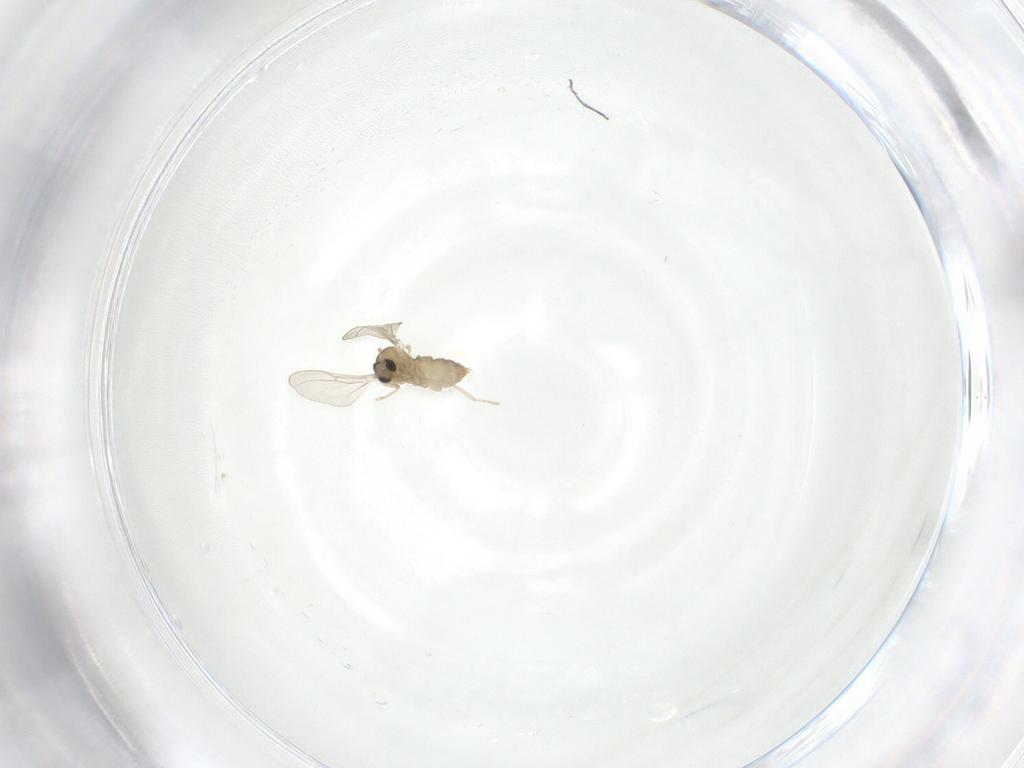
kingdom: Animalia
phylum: Arthropoda
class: Insecta
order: Diptera
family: Cecidomyiidae
